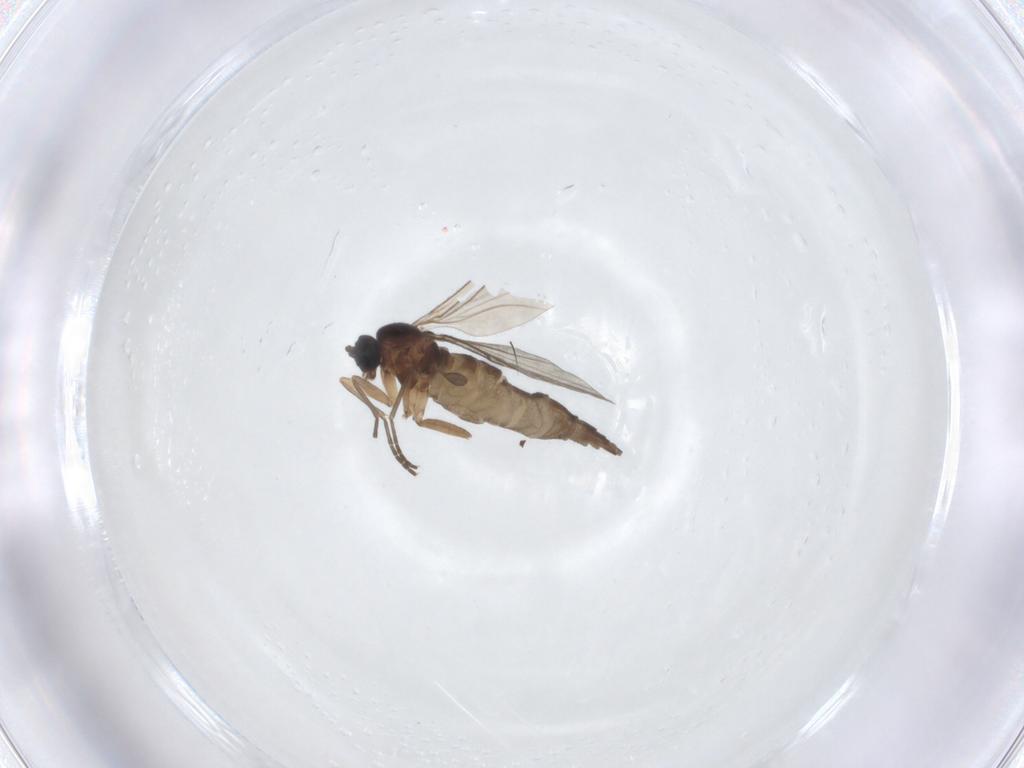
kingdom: Animalia
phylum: Arthropoda
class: Insecta
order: Diptera
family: Sciaridae
